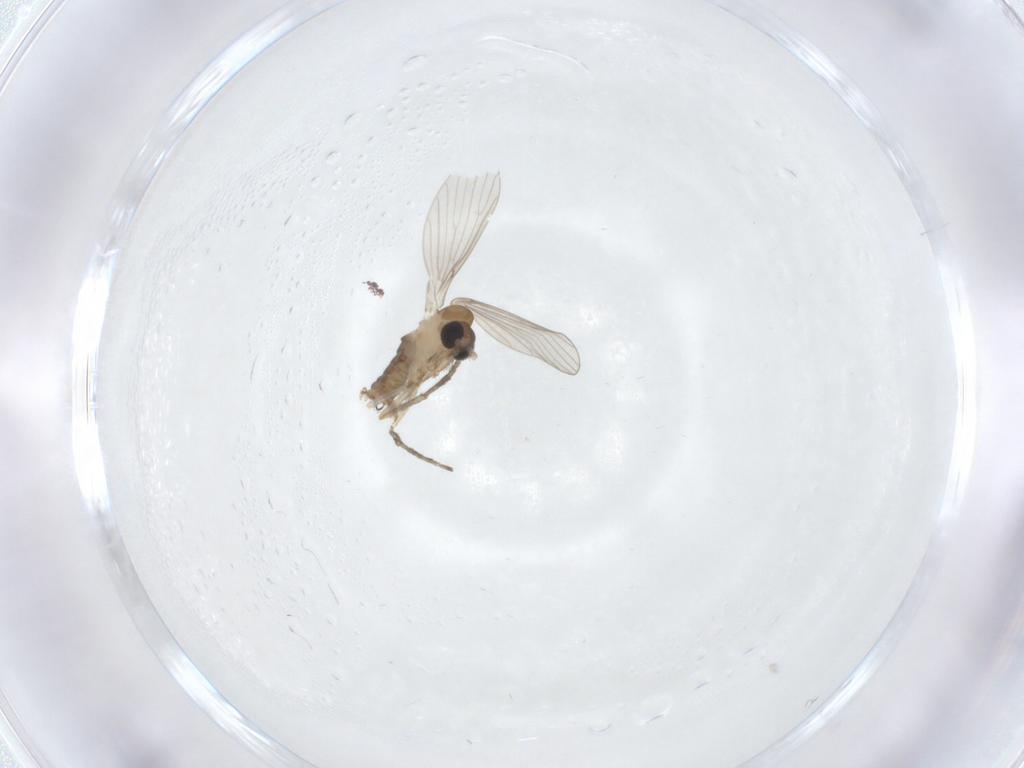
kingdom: Animalia
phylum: Arthropoda
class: Insecta
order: Diptera
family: Psychodidae
